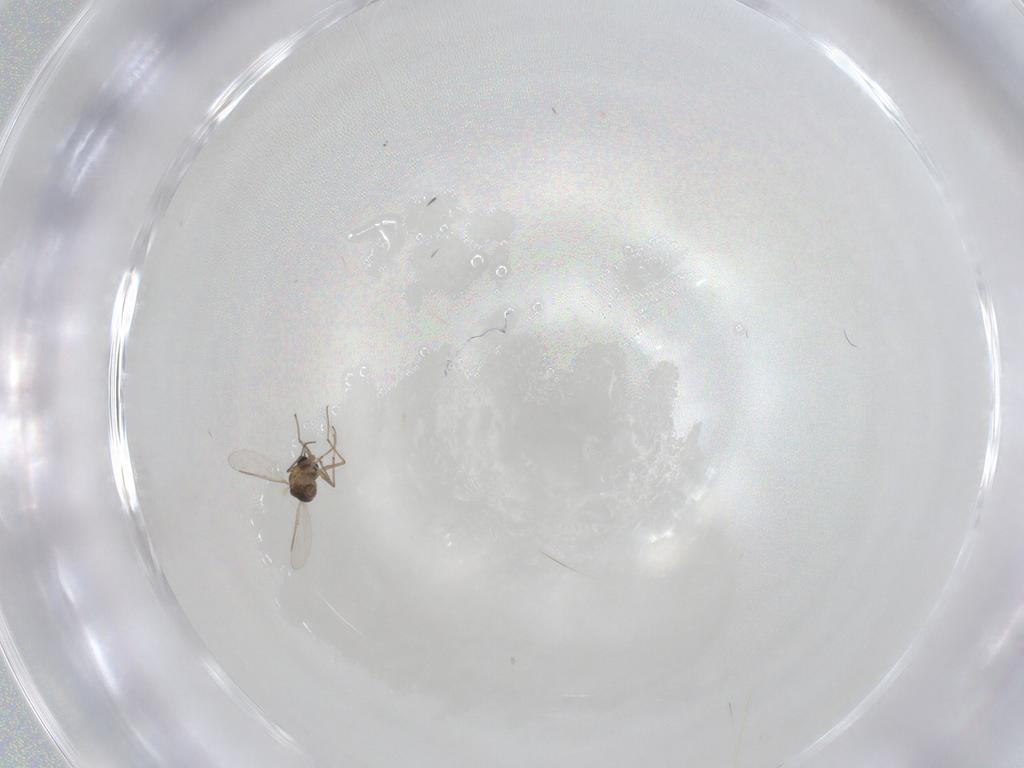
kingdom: Animalia
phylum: Arthropoda
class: Insecta
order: Diptera
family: Chironomidae
